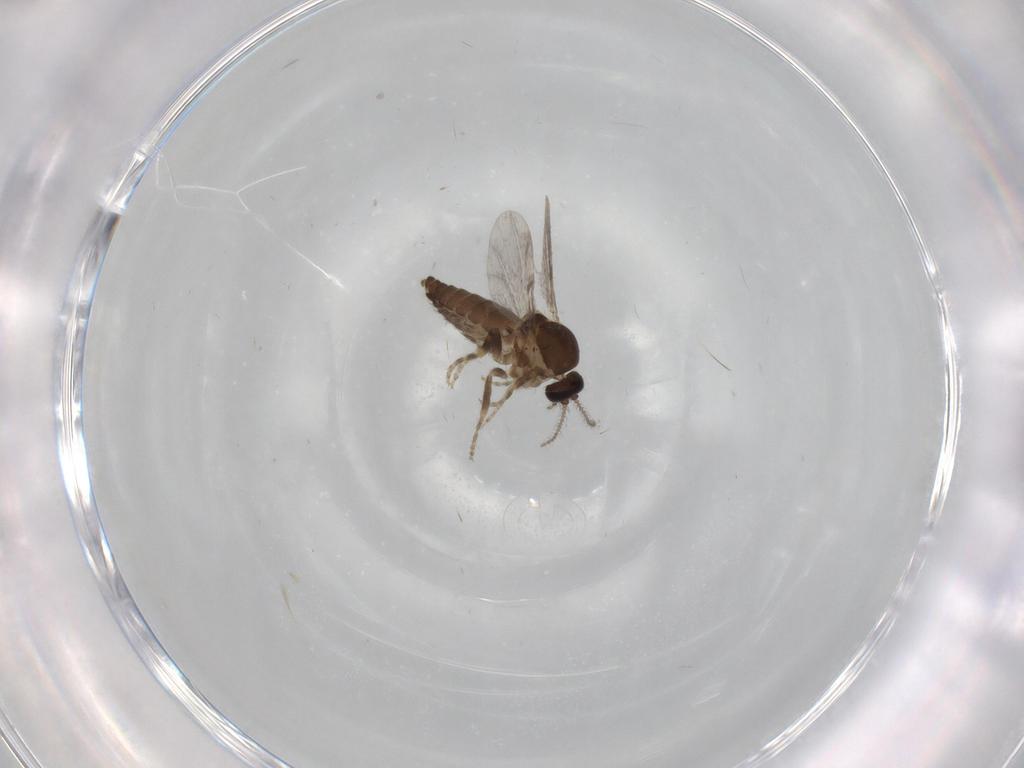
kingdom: Animalia
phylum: Arthropoda
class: Insecta
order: Diptera
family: Ceratopogonidae
